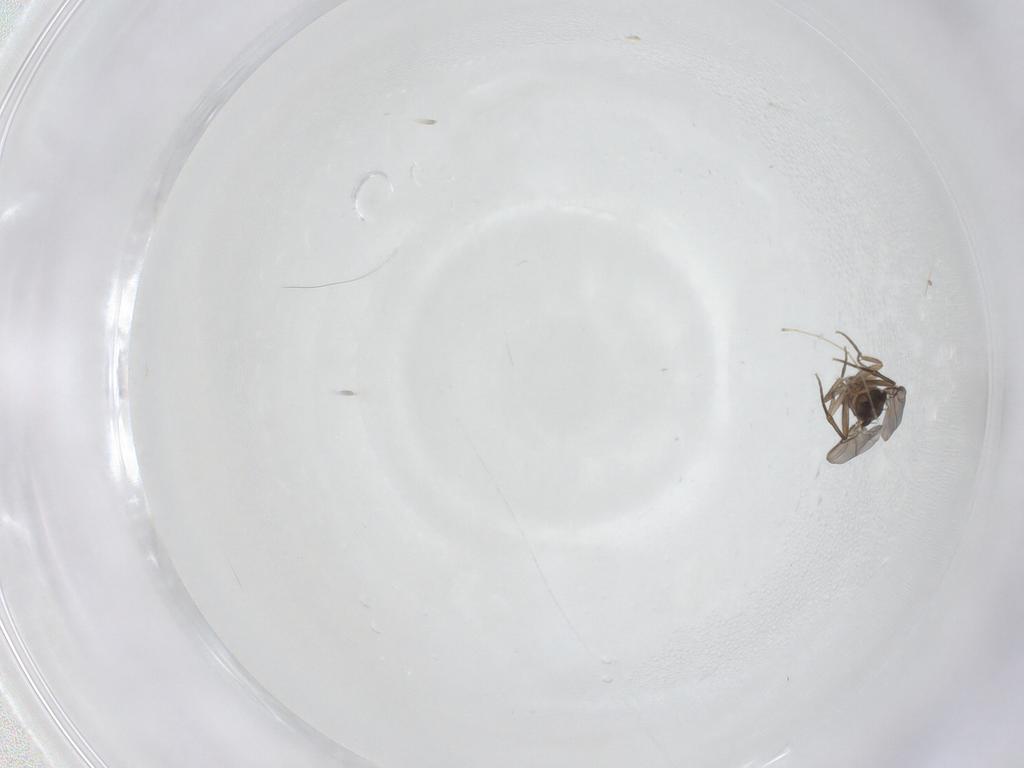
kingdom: Animalia
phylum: Arthropoda
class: Insecta
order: Diptera
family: Phoridae
